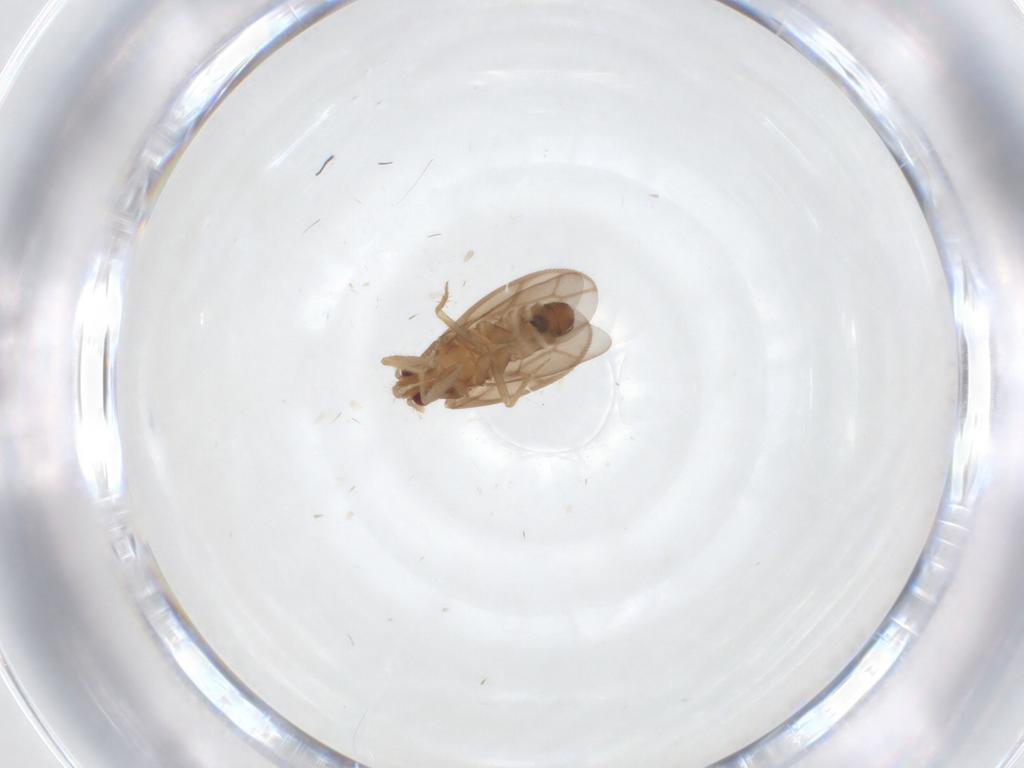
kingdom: Animalia
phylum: Arthropoda
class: Insecta
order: Hemiptera
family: Ceratocombidae
